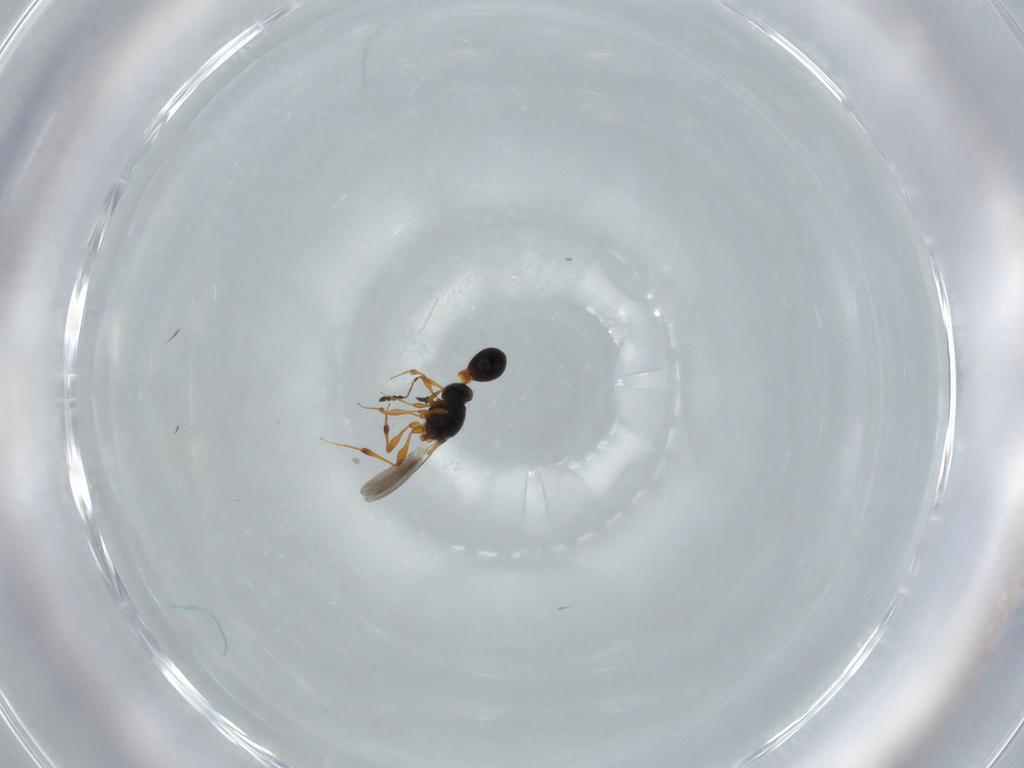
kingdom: Animalia
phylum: Arthropoda
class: Insecta
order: Hymenoptera
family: Platygastridae
